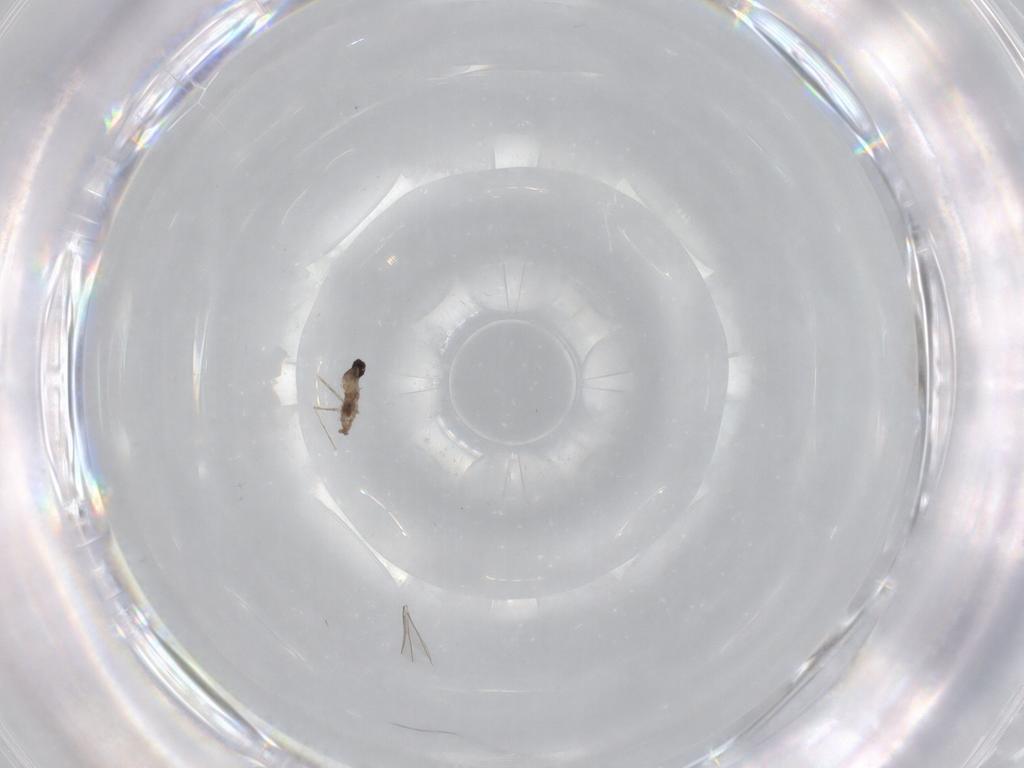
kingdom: Animalia
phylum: Arthropoda
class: Insecta
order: Diptera
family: Cecidomyiidae
